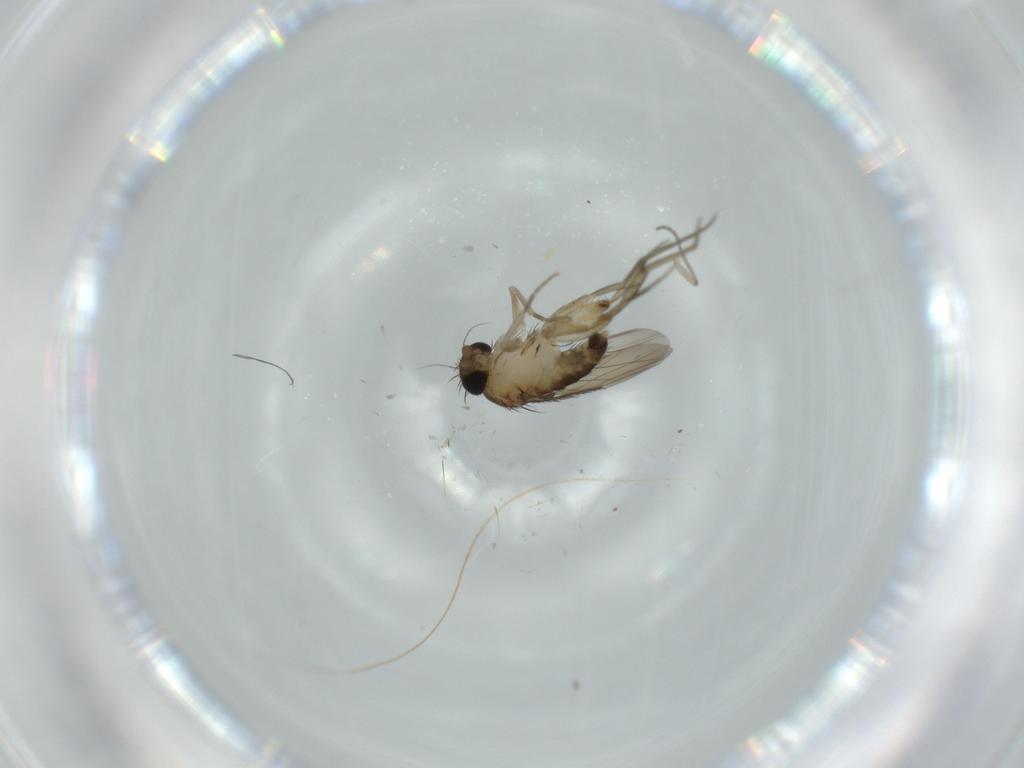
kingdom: Animalia
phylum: Arthropoda
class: Insecta
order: Diptera
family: Phoridae
